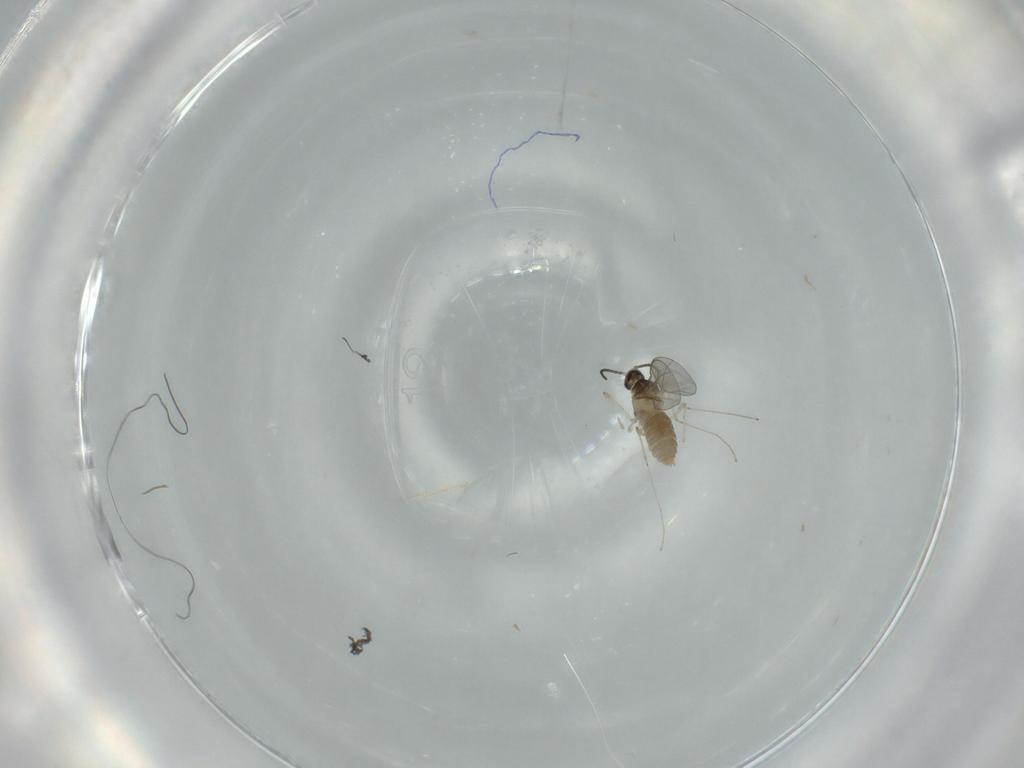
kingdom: Animalia
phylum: Arthropoda
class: Insecta
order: Diptera
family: Cecidomyiidae
